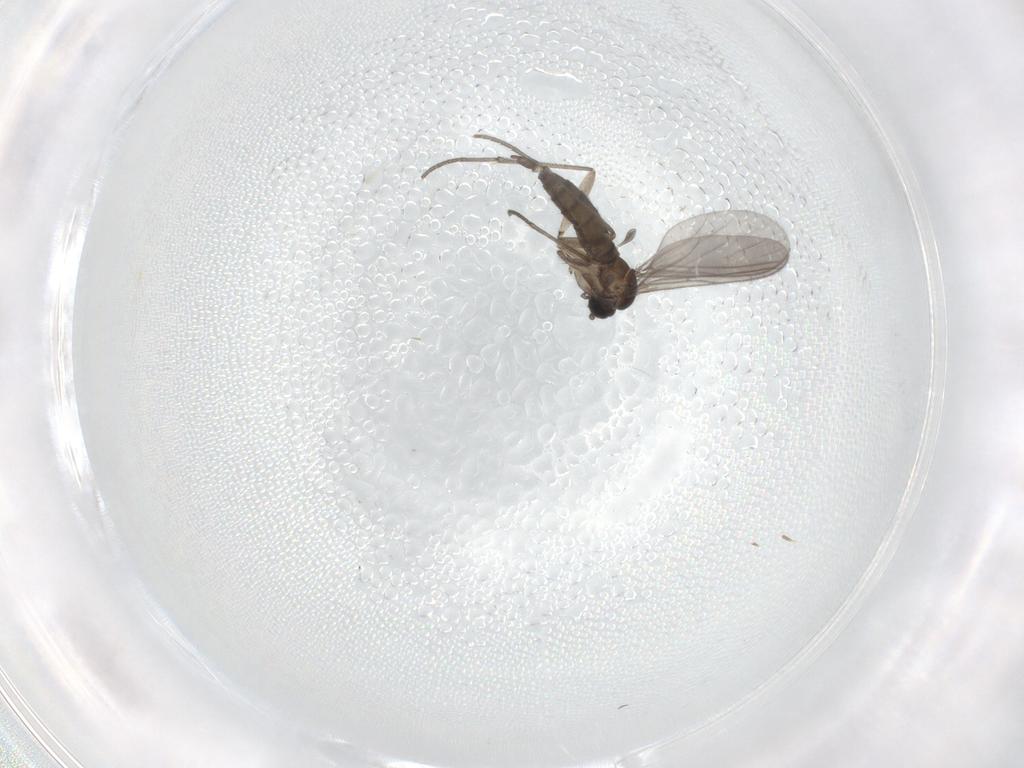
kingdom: Animalia
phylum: Arthropoda
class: Insecta
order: Diptera
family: Sciaridae
